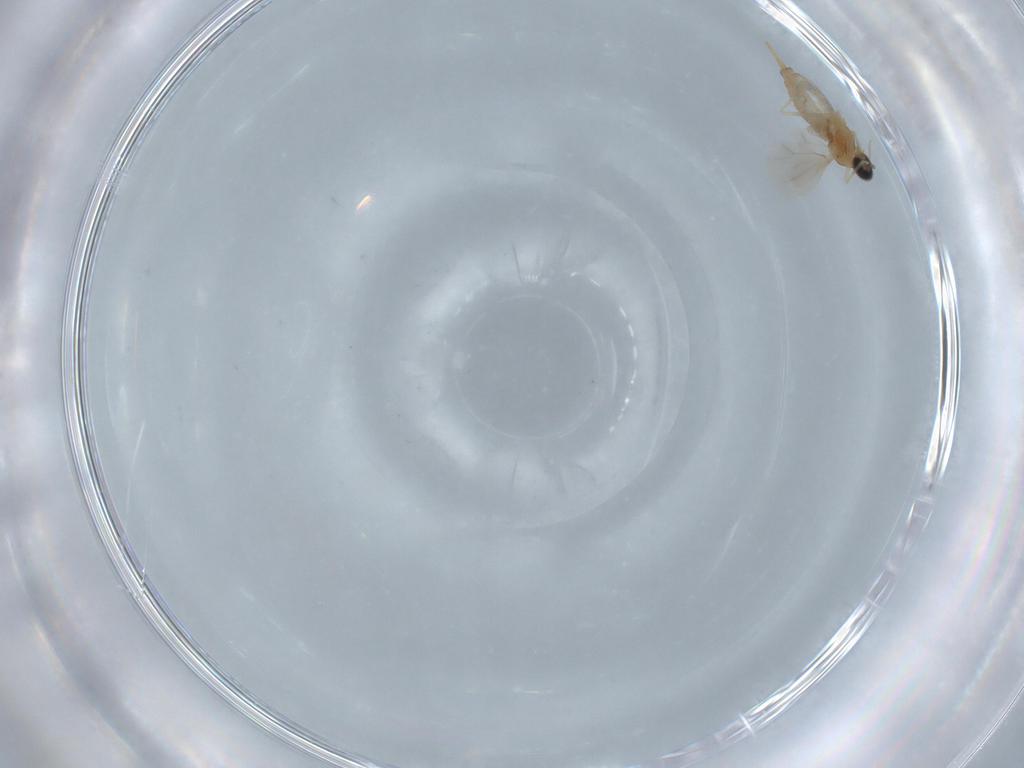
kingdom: Animalia
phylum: Arthropoda
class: Insecta
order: Diptera
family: Cecidomyiidae
